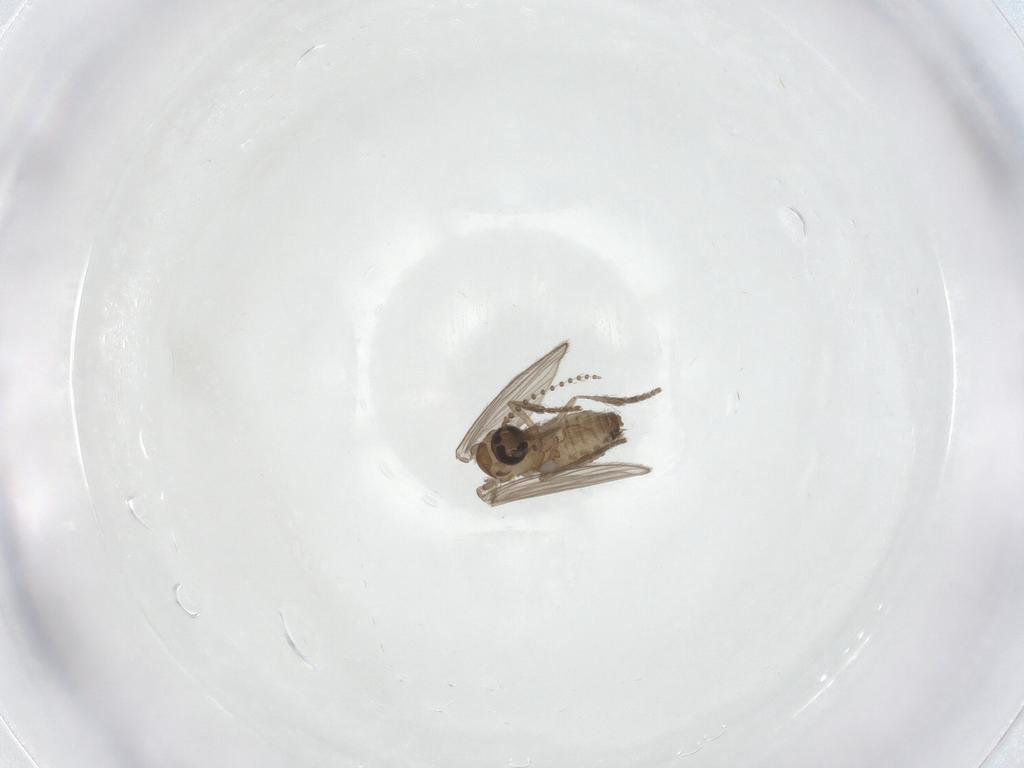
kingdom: Animalia
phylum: Arthropoda
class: Insecta
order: Diptera
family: Psychodidae
